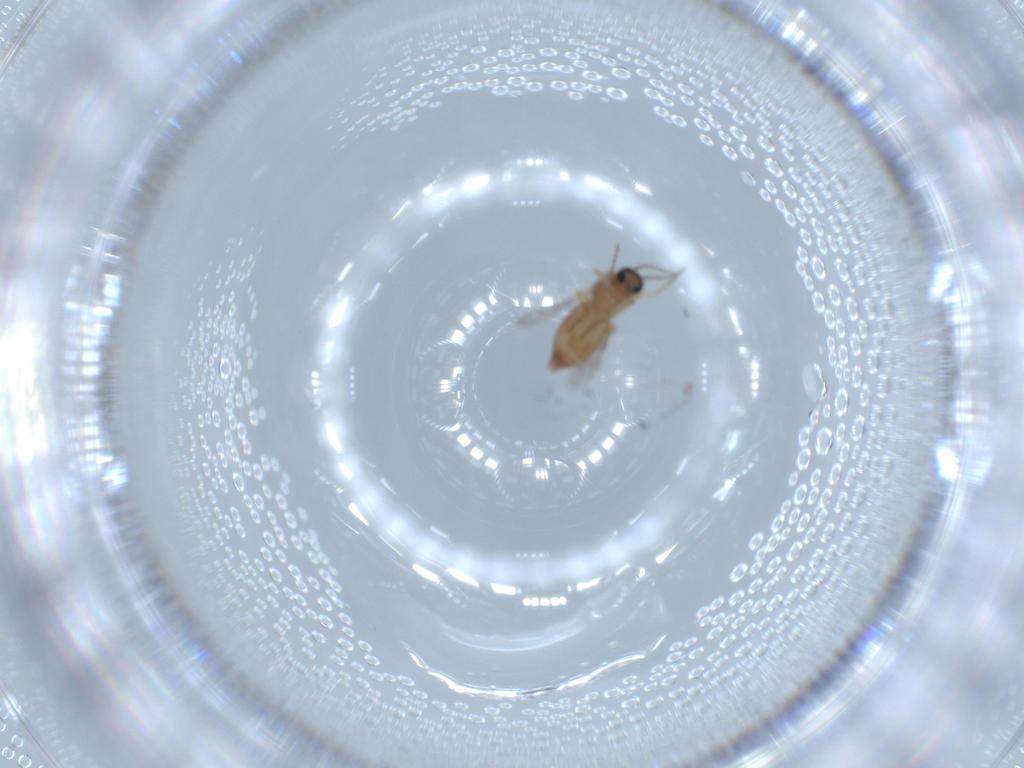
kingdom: Animalia
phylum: Arthropoda
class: Insecta
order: Diptera
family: Ceratopogonidae
